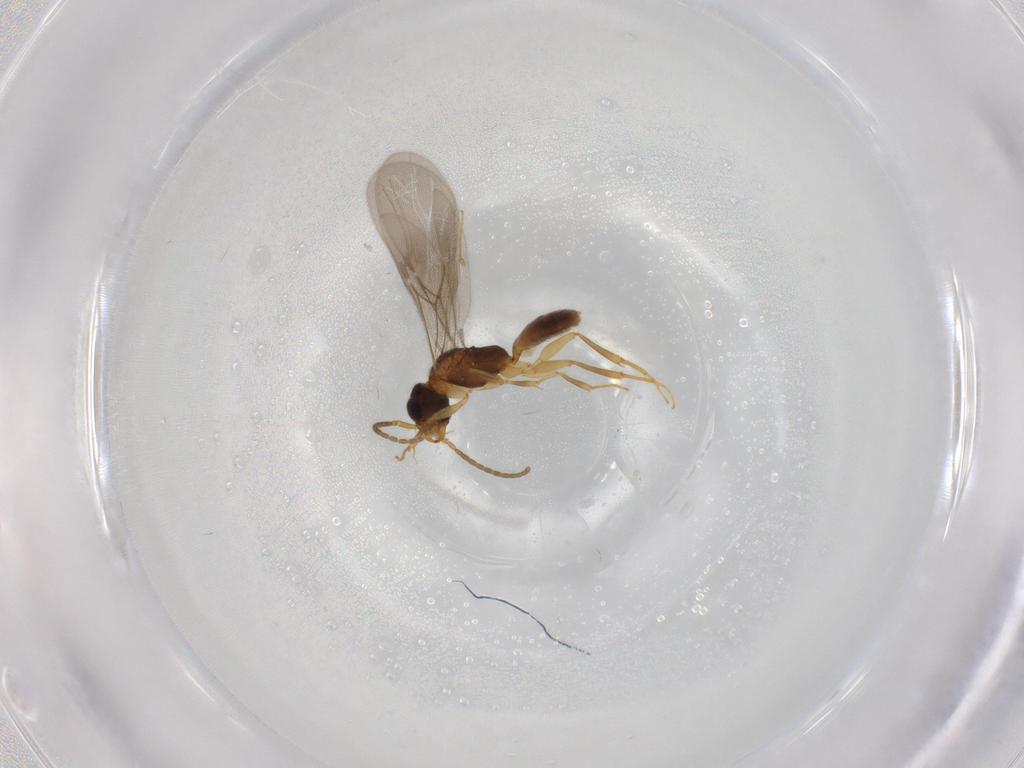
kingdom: Animalia
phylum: Arthropoda
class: Insecta
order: Hymenoptera
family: Bethylidae
